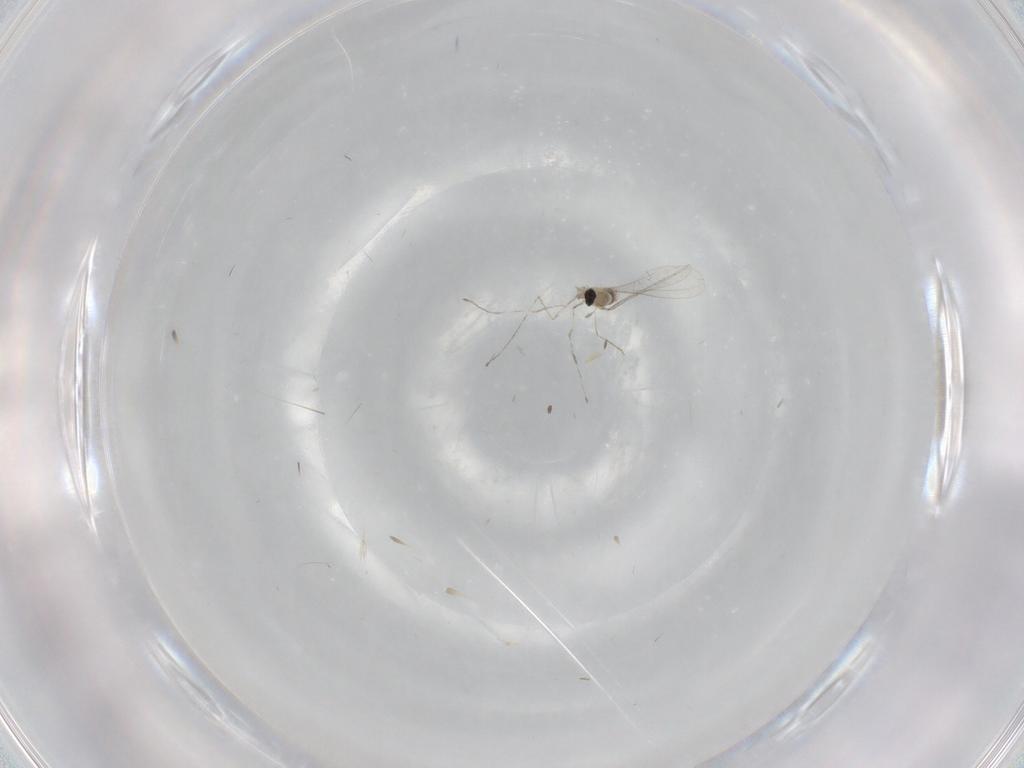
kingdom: Animalia
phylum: Arthropoda
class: Insecta
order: Diptera
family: Cecidomyiidae
